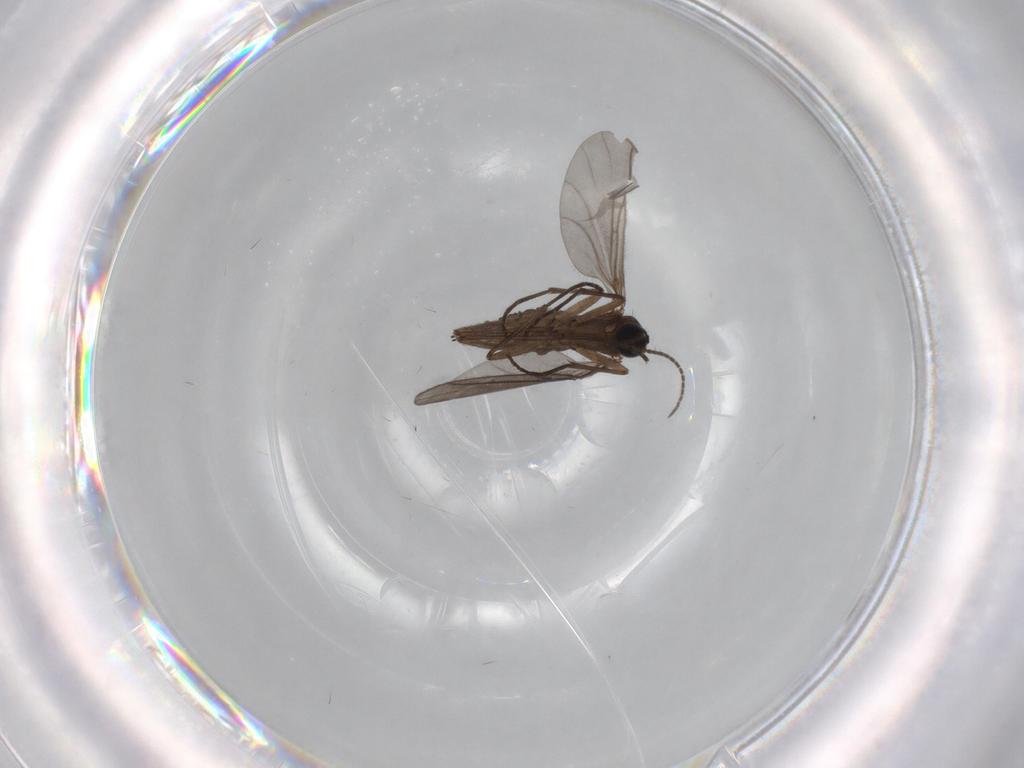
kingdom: Animalia
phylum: Arthropoda
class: Insecta
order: Diptera
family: Sciaridae
